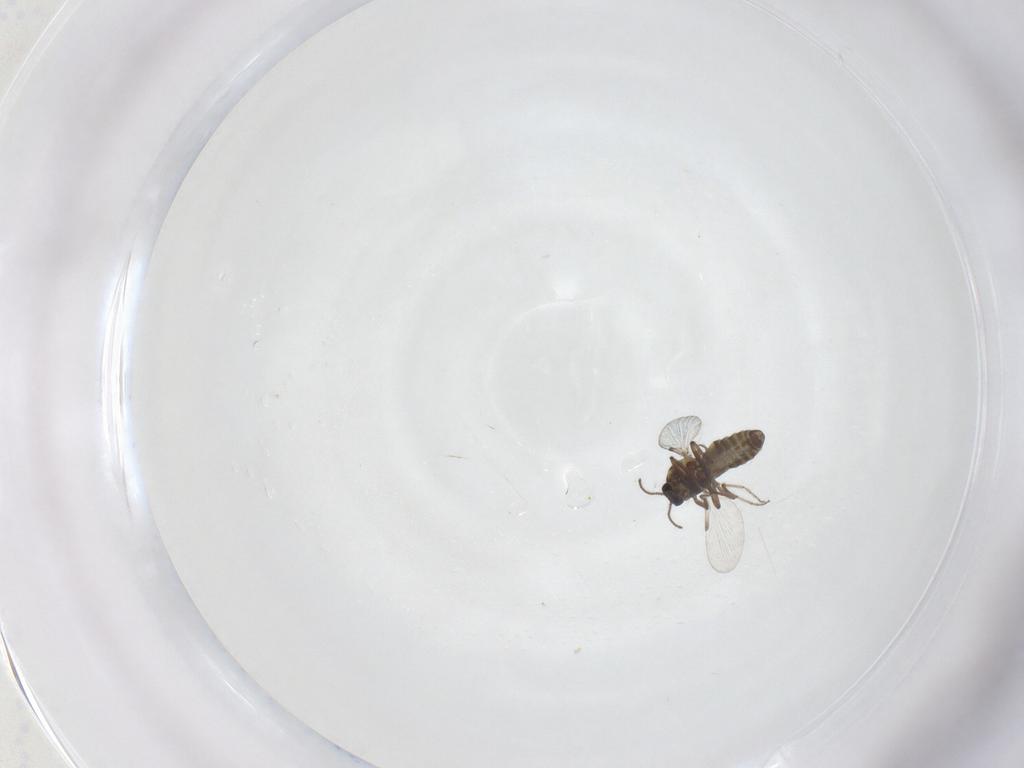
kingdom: Animalia
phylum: Arthropoda
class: Insecta
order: Diptera
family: Ceratopogonidae
